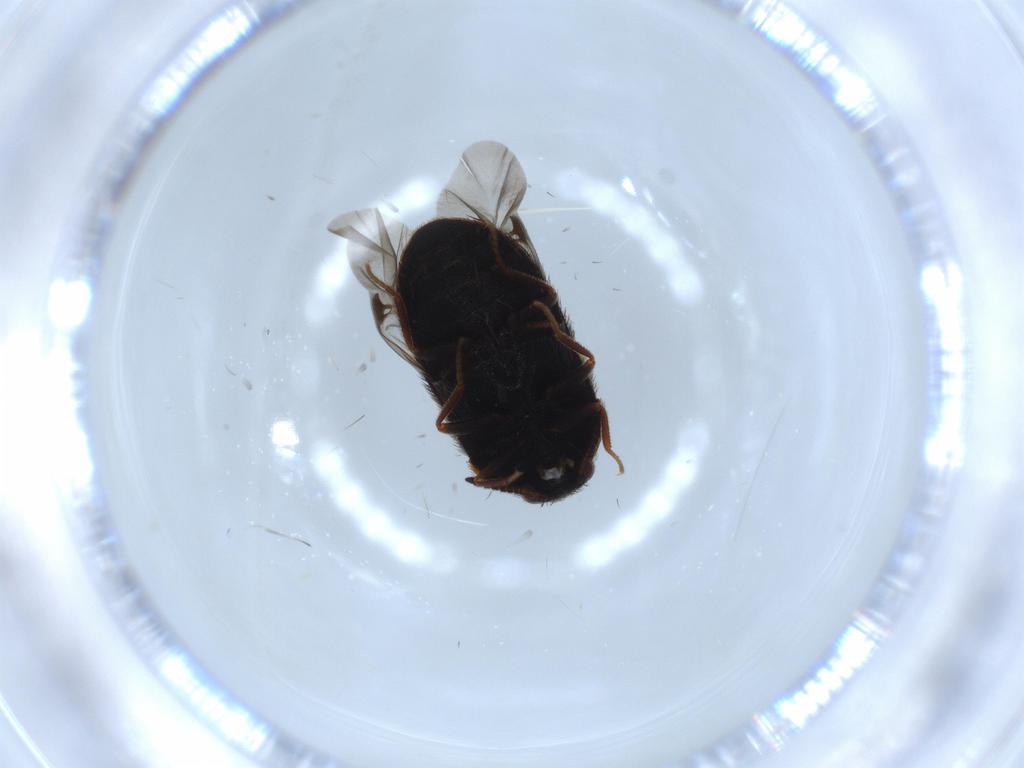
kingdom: Animalia
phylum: Arthropoda
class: Insecta
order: Coleoptera
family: Dermestidae
